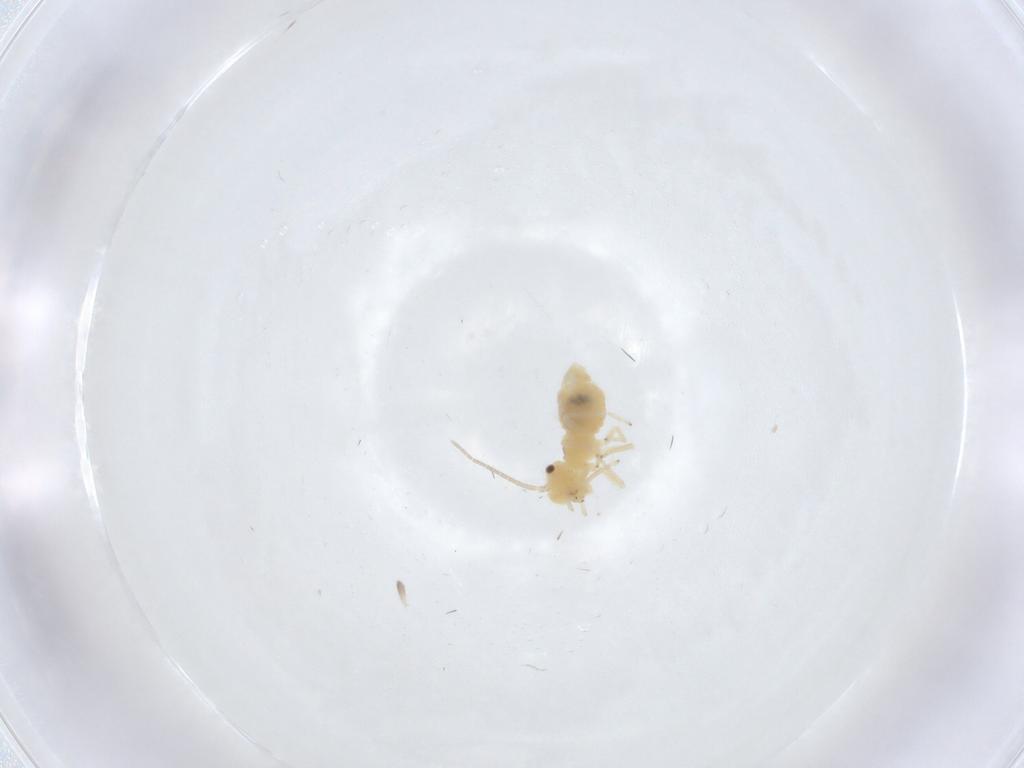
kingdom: Animalia
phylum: Arthropoda
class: Insecta
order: Psocodea
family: Caeciliusidae
